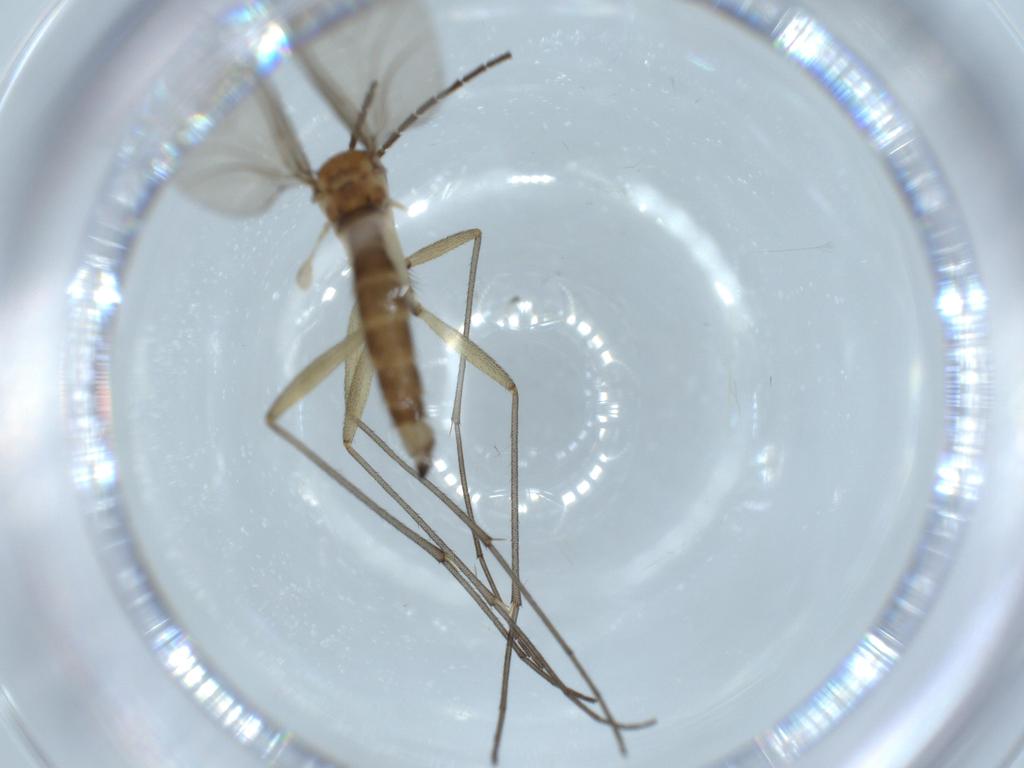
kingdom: Animalia
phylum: Arthropoda
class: Insecta
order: Diptera
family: Sciaridae
